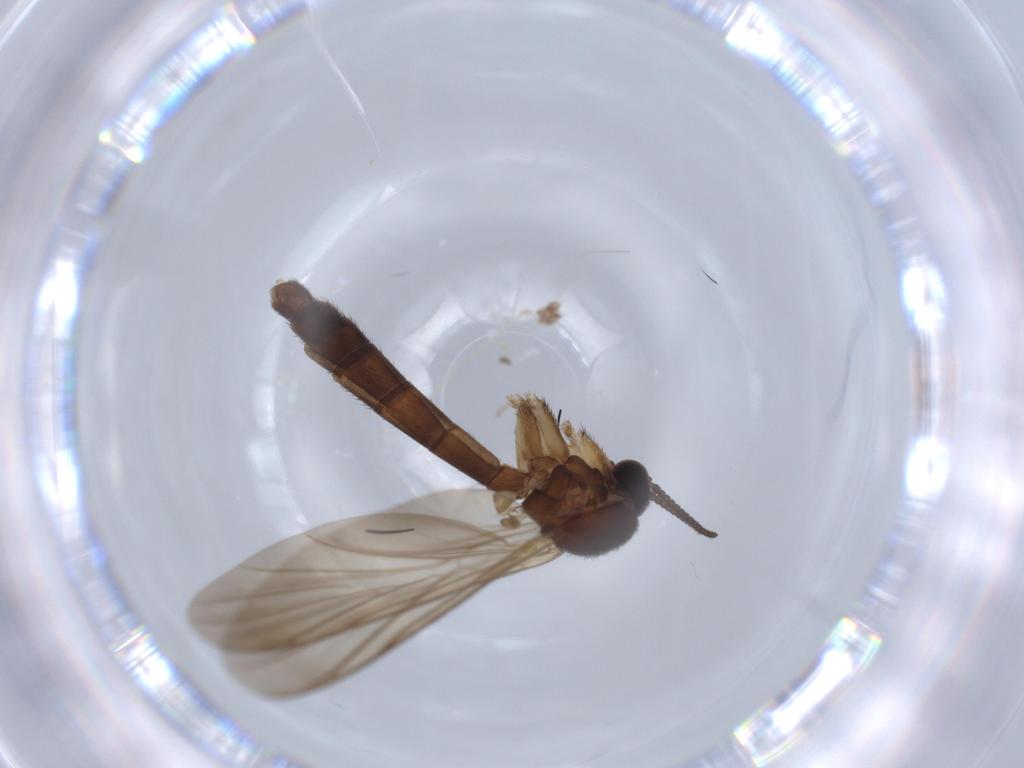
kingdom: Animalia
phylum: Arthropoda
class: Insecta
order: Diptera
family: Keroplatidae
